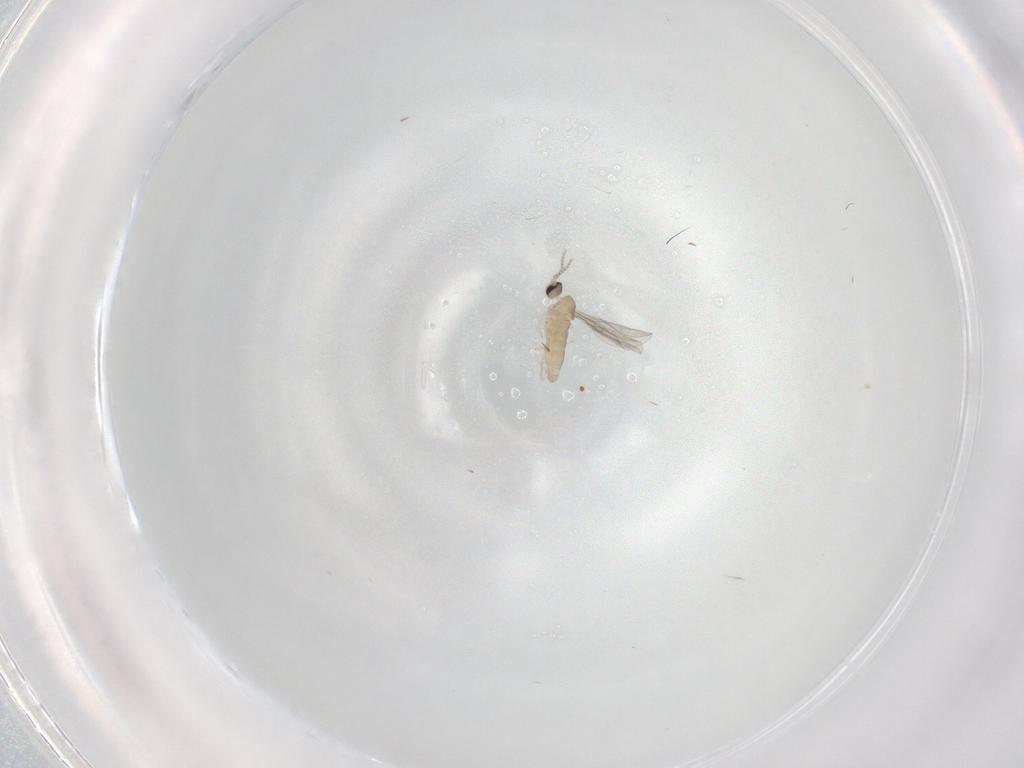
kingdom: Animalia
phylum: Arthropoda
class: Insecta
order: Diptera
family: Cecidomyiidae
